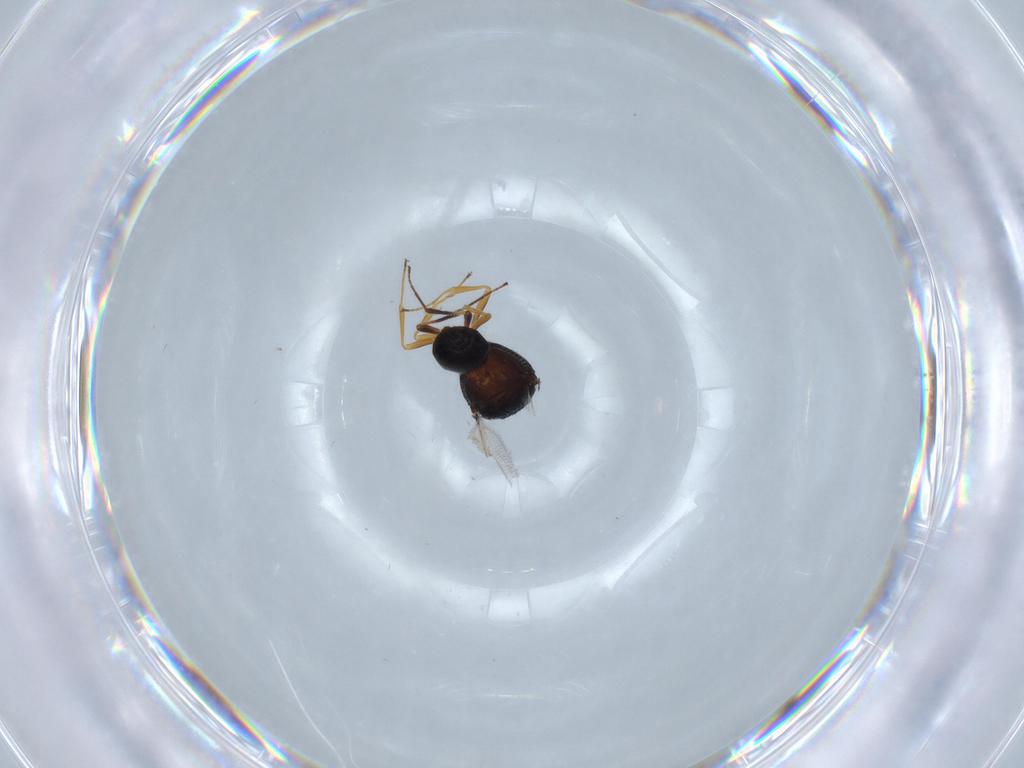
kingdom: Animalia
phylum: Arthropoda
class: Insecta
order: Hymenoptera
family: Scelionidae
